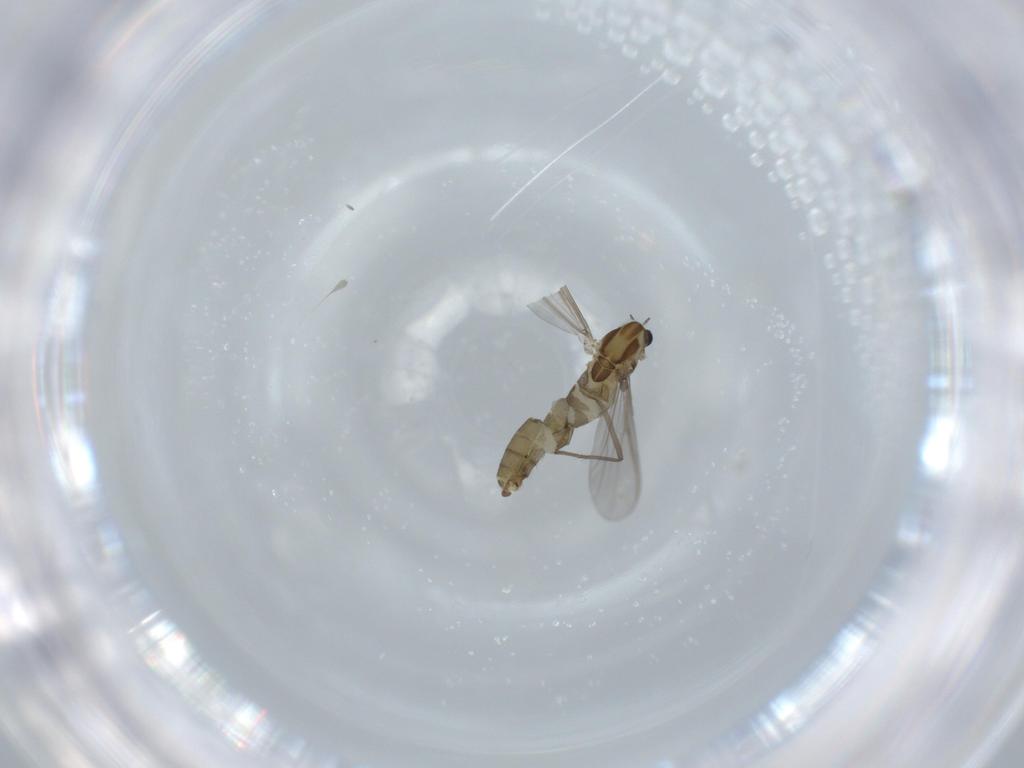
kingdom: Animalia
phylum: Arthropoda
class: Insecta
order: Diptera
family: Chironomidae
